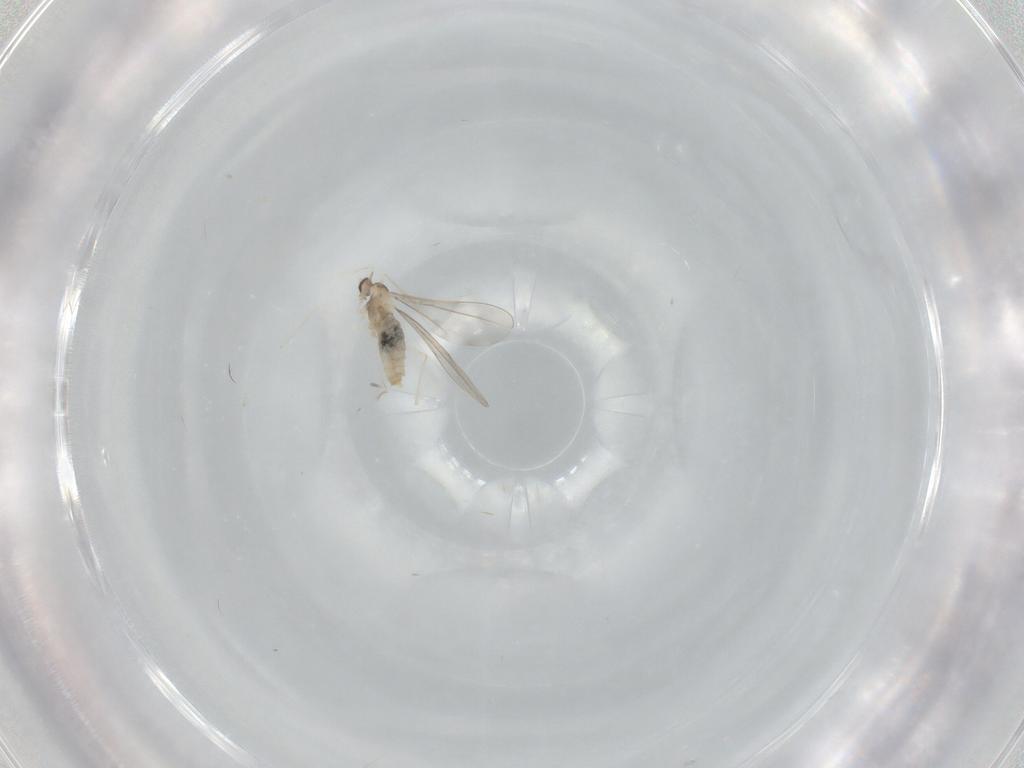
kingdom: Animalia
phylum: Arthropoda
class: Insecta
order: Diptera
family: Cecidomyiidae
